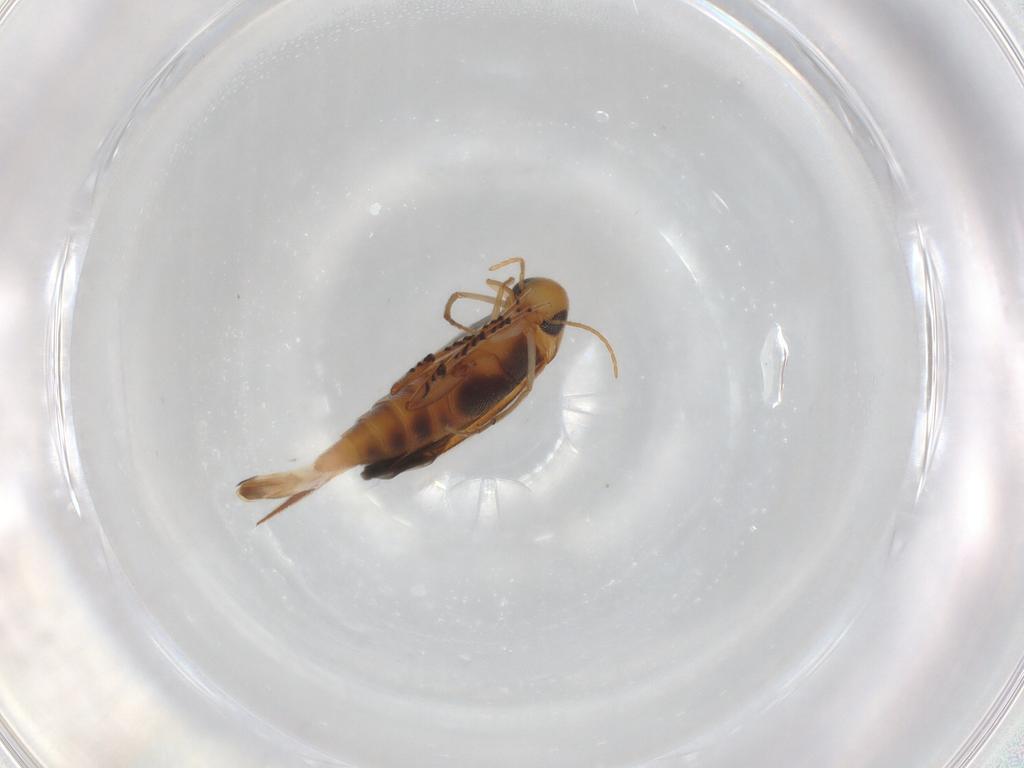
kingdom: Animalia
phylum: Arthropoda
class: Insecta
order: Coleoptera
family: Mordellidae
